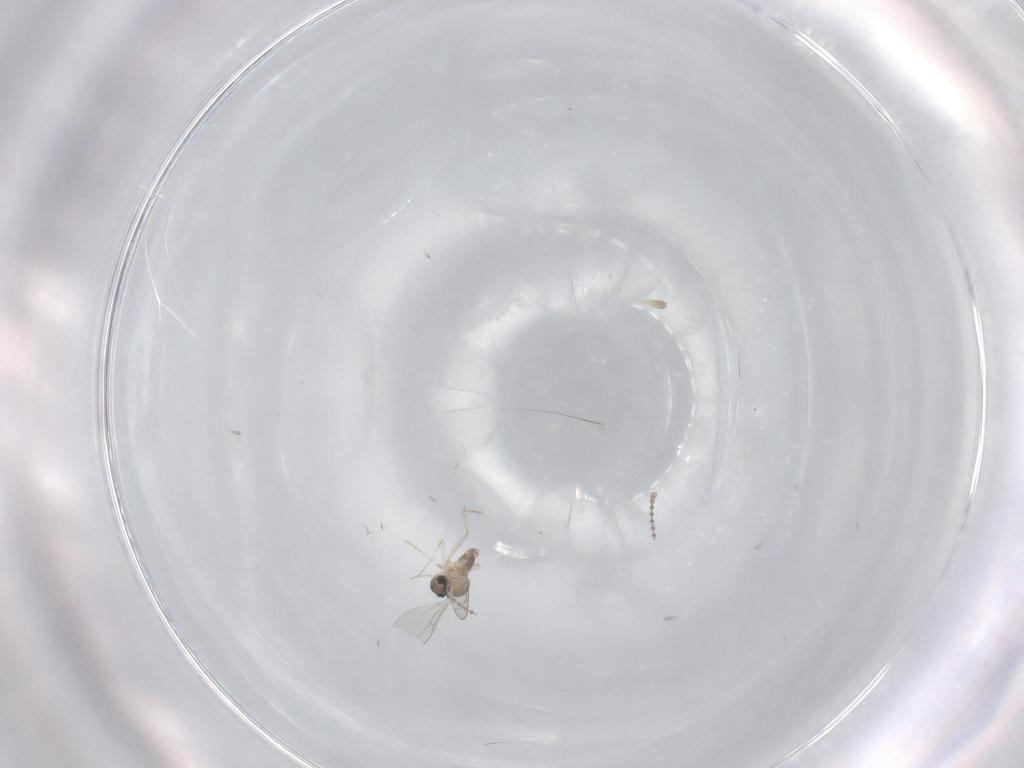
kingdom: Animalia
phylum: Arthropoda
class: Insecta
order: Diptera
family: Cecidomyiidae
